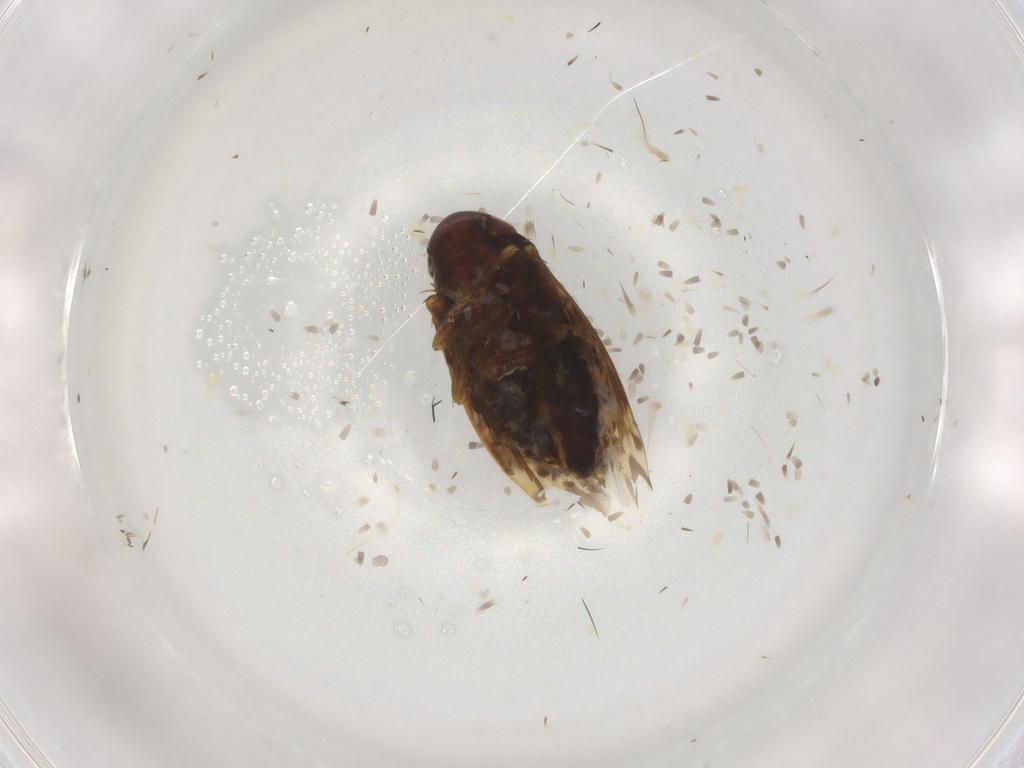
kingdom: Animalia
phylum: Arthropoda
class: Insecta
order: Hemiptera
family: Cicadellidae
